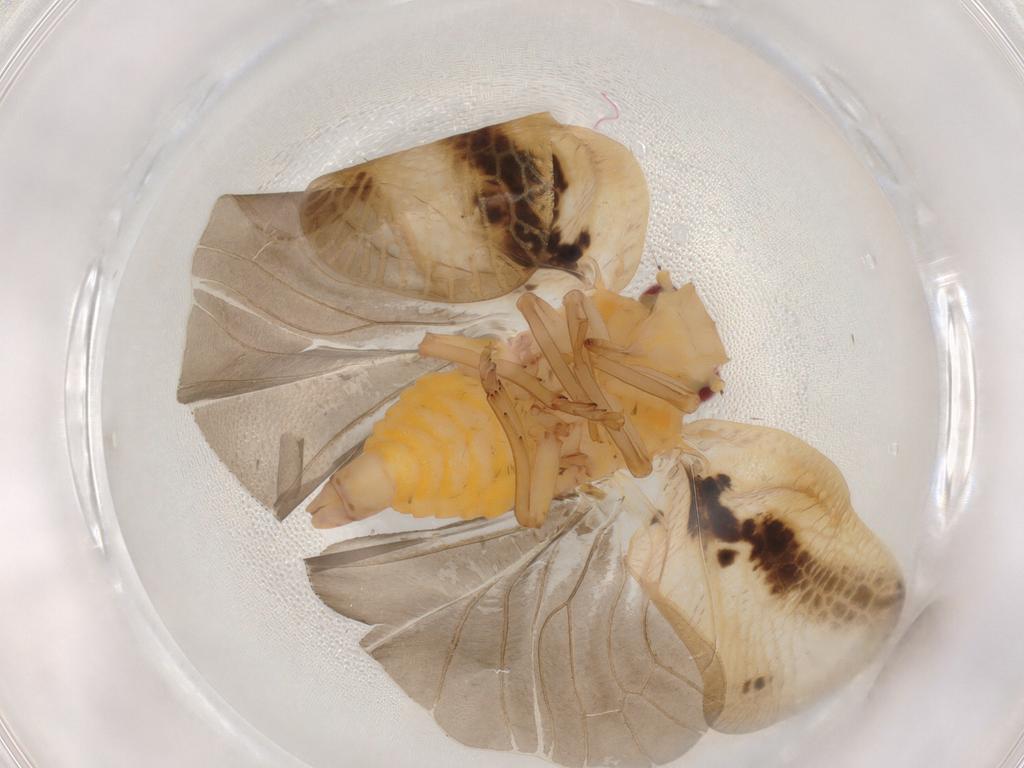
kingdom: Animalia
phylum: Arthropoda
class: Insecta
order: Hemiptera
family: Flatidae
